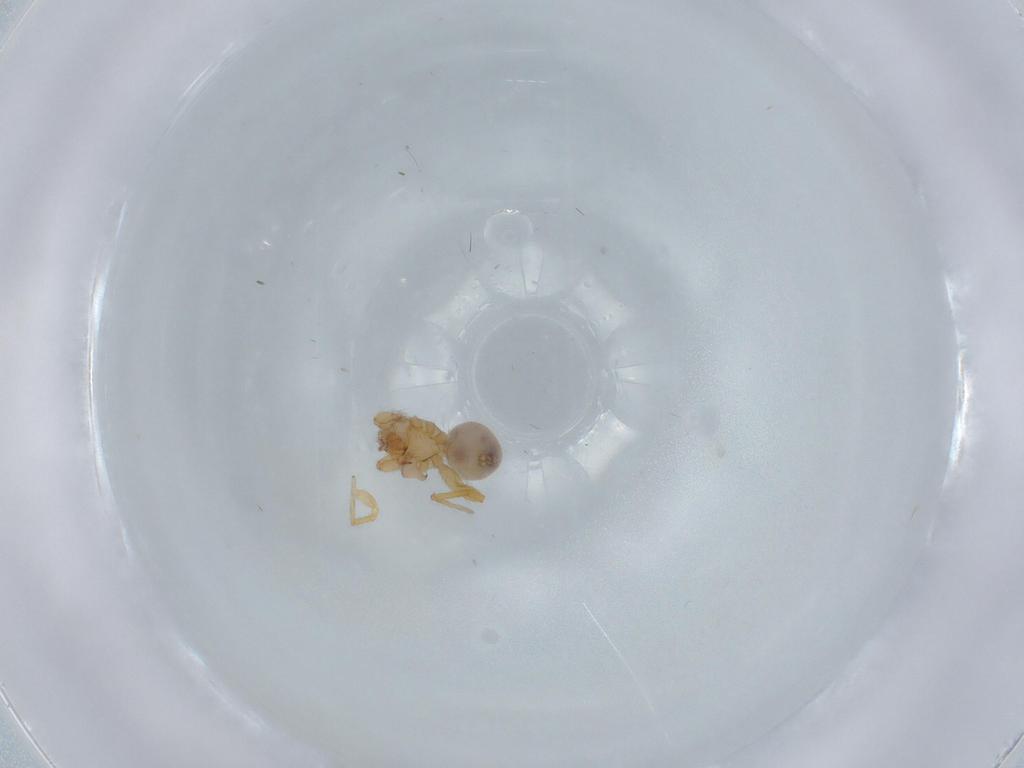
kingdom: Animalia
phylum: Arthropoda
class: Arachnida
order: Araneae
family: Oonopidae
